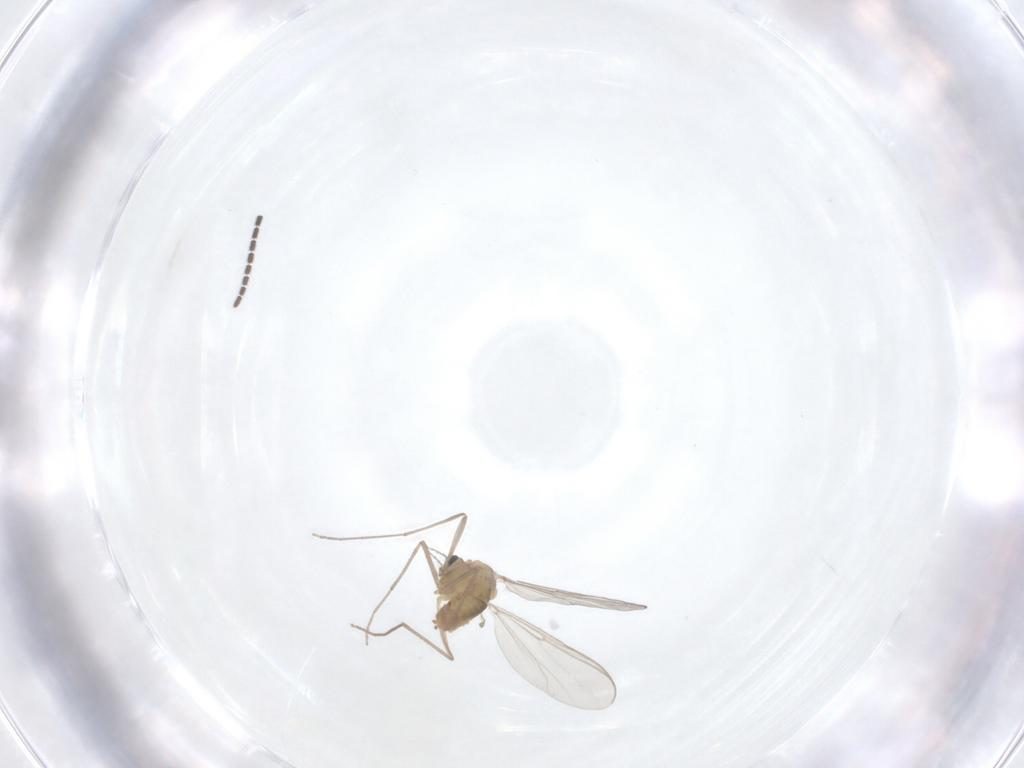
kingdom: Animalia
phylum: Arthropoda
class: Insecta
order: Diptera
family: Chironomidae
